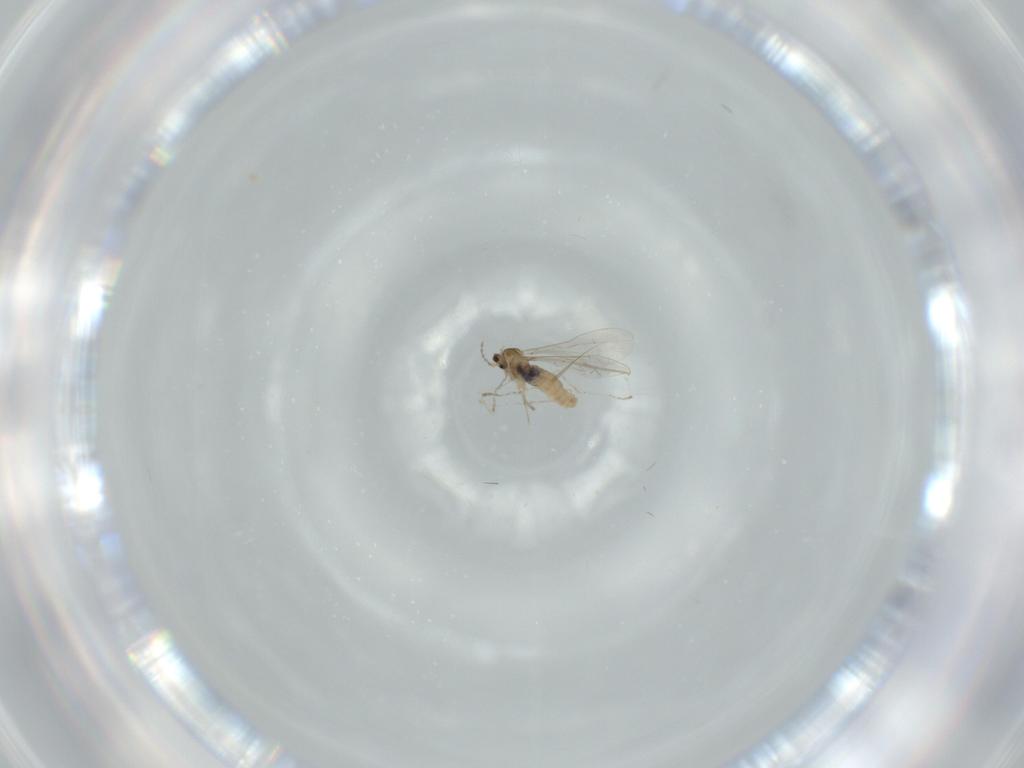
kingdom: Animalia
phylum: Arthropoda
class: Insecta
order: Diptera
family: Cecidomyiidae
